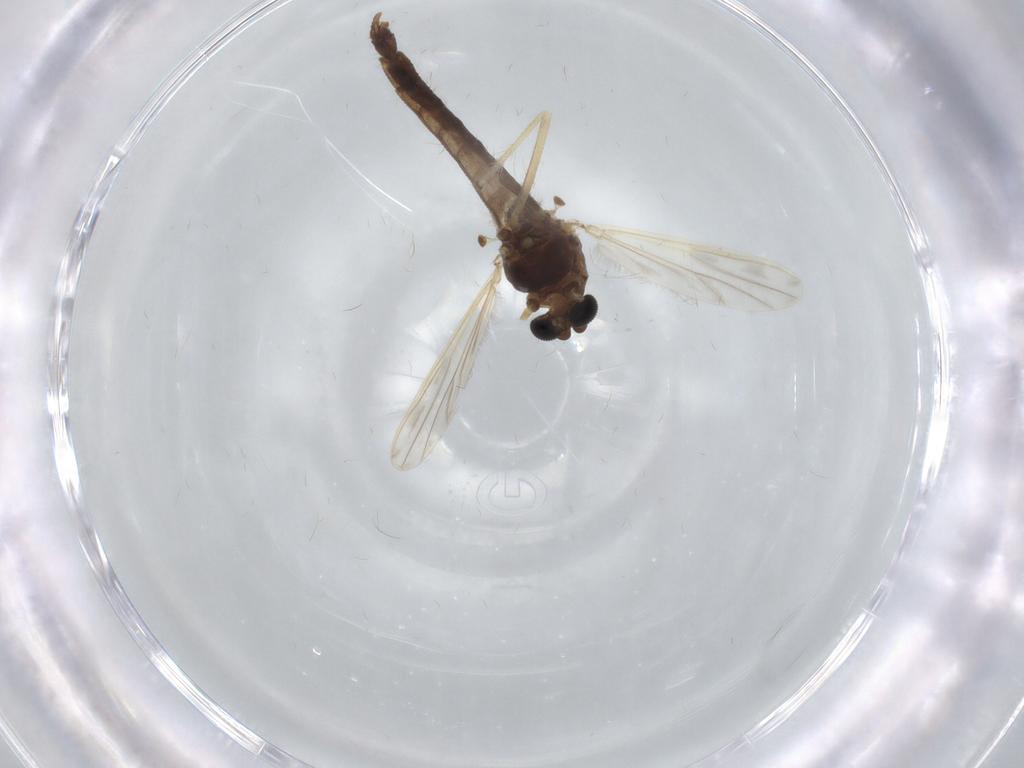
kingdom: Animalia
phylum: Arthropoda
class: Insecta
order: Diptera
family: Chironomidae
